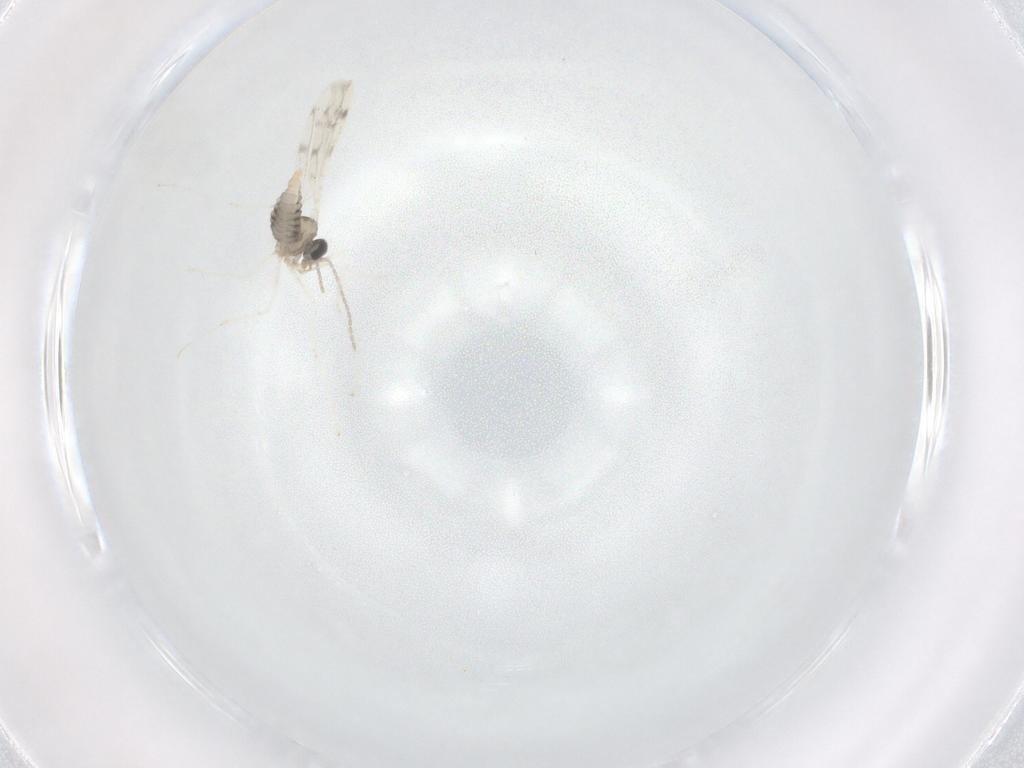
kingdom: Animalia
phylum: Arthropoda
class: Insecta
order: Diptera
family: Cecidomyiidae
